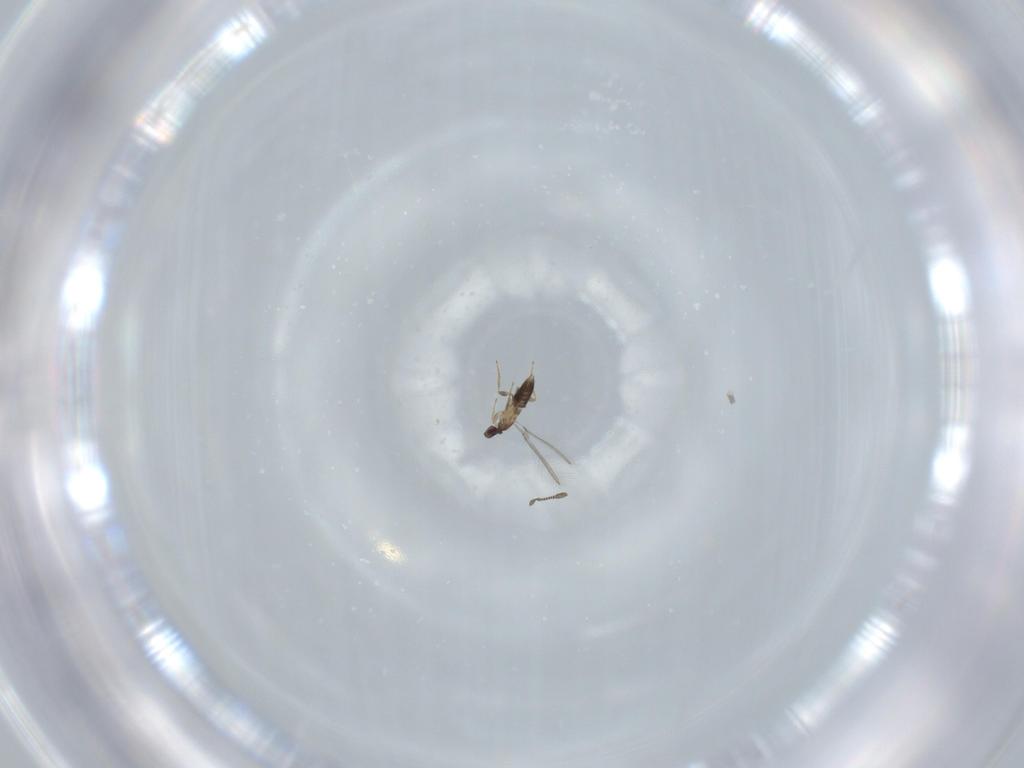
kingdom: Animalia
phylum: Arthropoda
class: Insecta
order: Hymenoptera
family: Mymaridae
